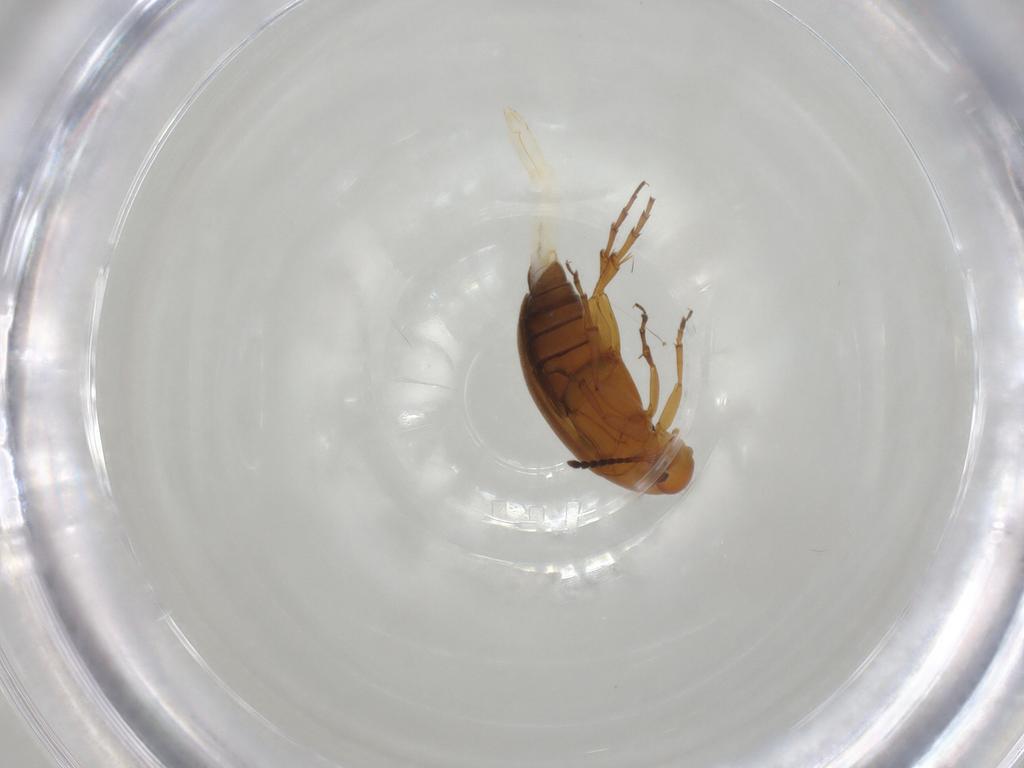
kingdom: Animalia
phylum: Arthropoda
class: Insecta
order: Coleoptera
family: Scraptiidae
